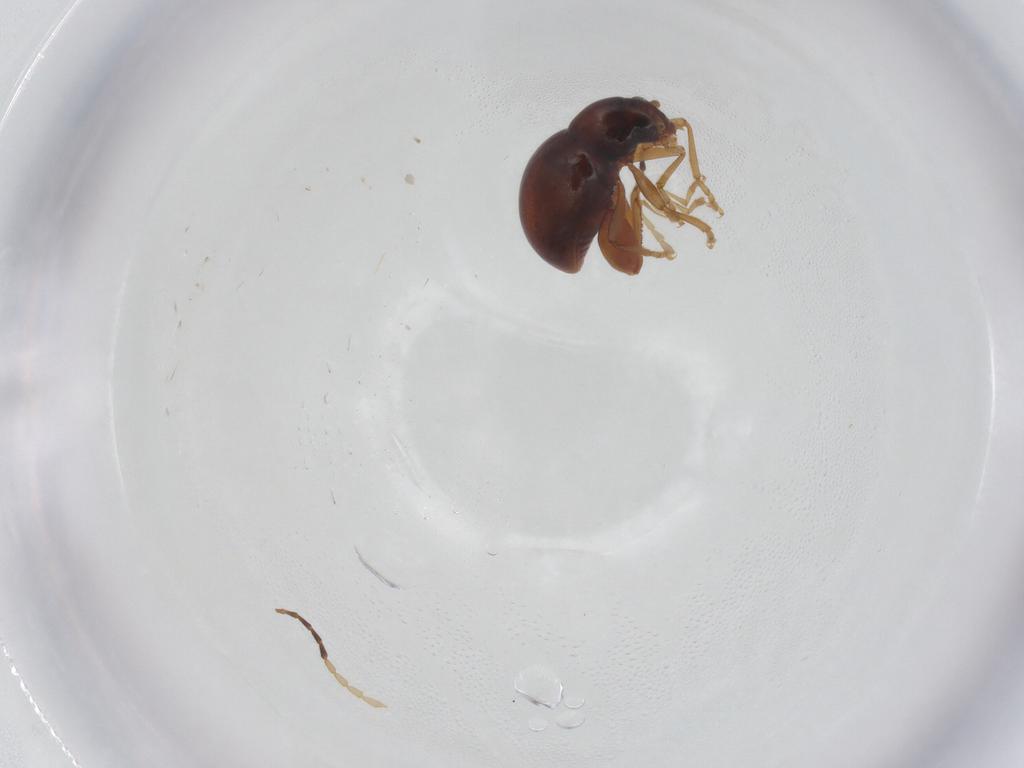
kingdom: Animalia
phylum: Arthropoda
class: Insecta
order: Coleoptera
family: Chrysomelidae
